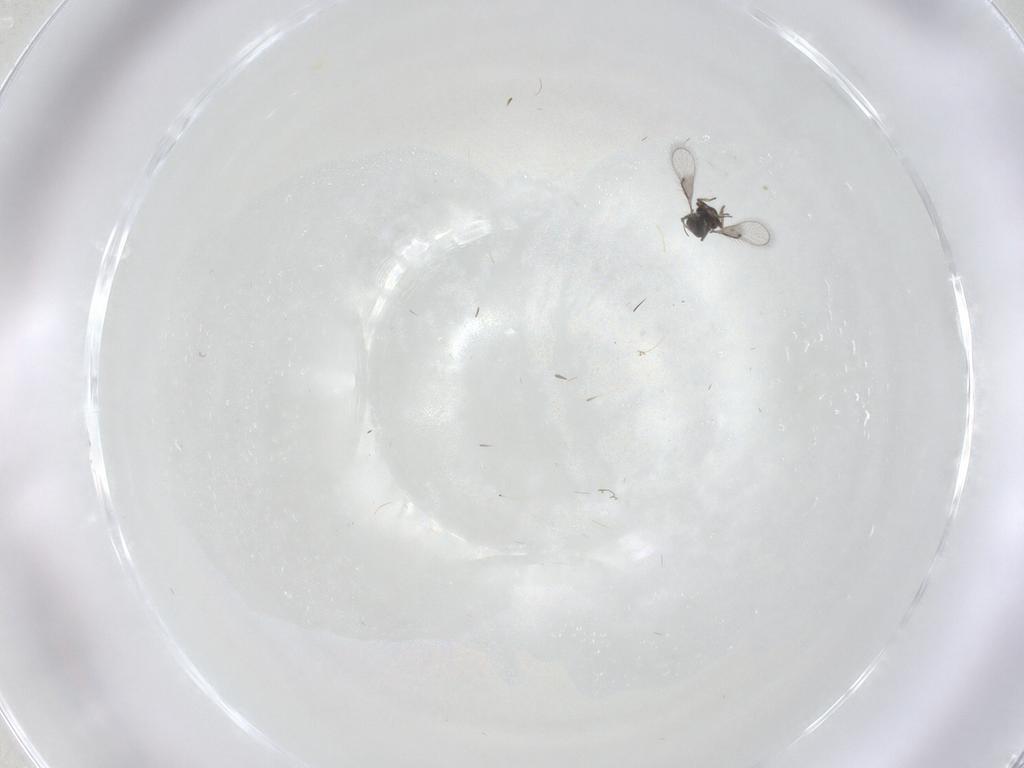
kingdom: Animalia
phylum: Arthropoda
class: Insecta
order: Hymenoptera
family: Trichogrammatidae
